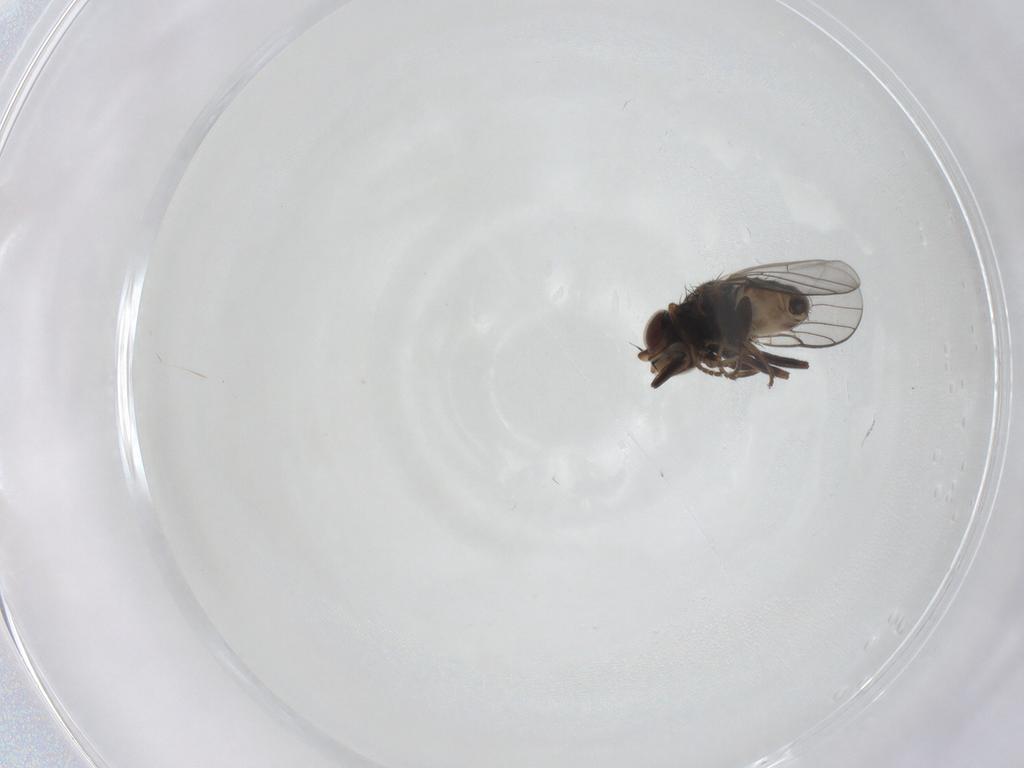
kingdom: Animalia
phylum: Arthropoda
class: Insecta
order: Diptera
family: Chloropidae
